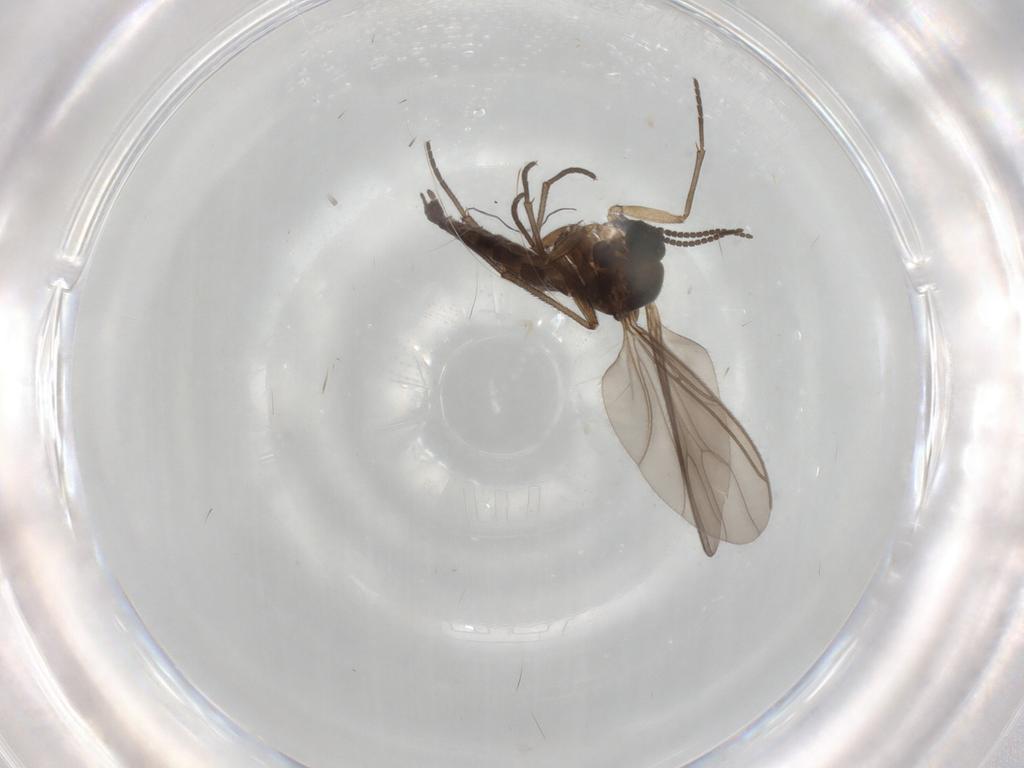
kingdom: Animalia
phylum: Arthropoda
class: Insecta
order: Diptera
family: Sciaridae
